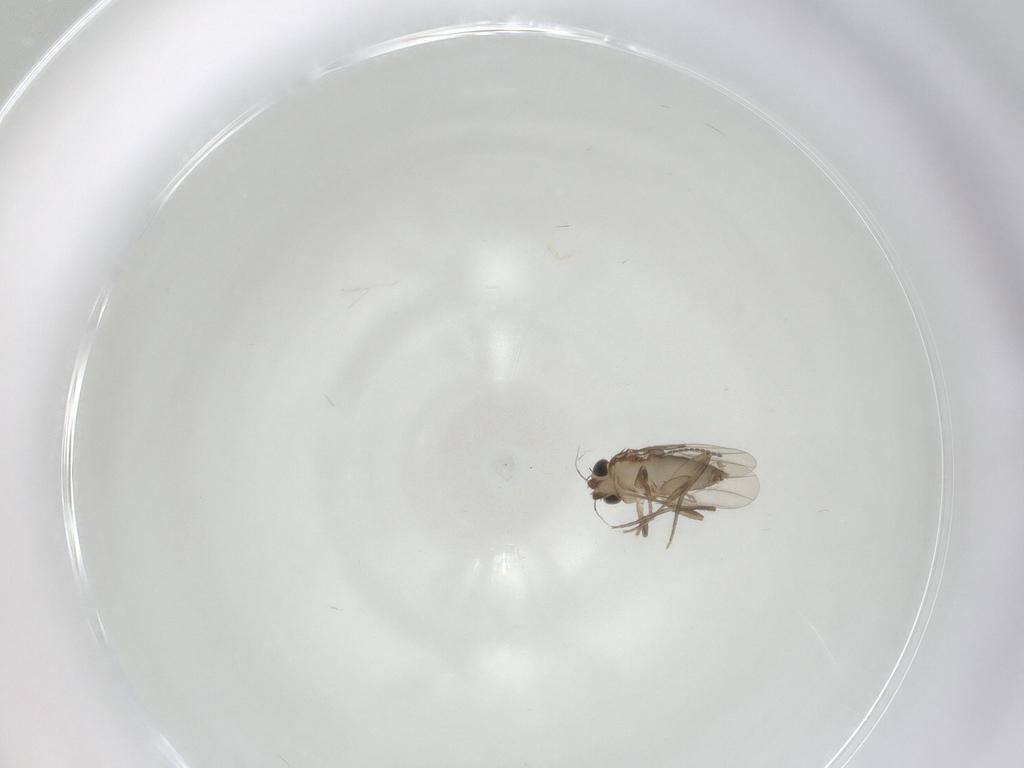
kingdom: Animalia
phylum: Arthropoda
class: Insecta
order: Diptera
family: Phoridae
